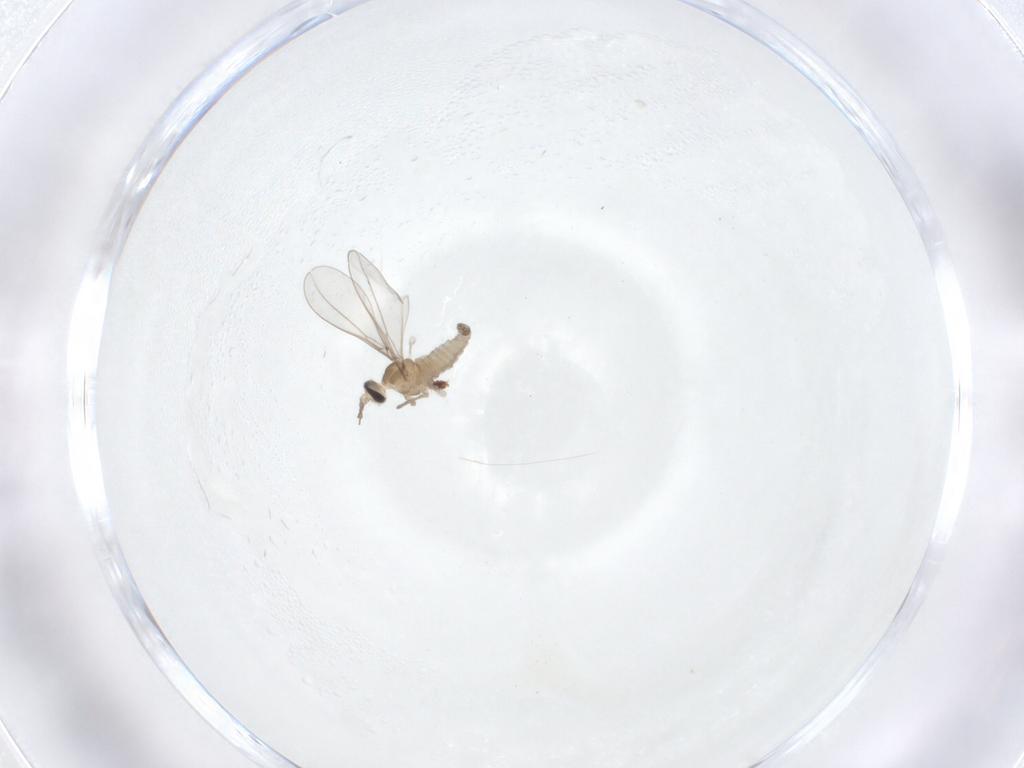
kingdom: Animalia
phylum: Arthropoda
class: Insecta
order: Diptera
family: Cecidomyiidae
